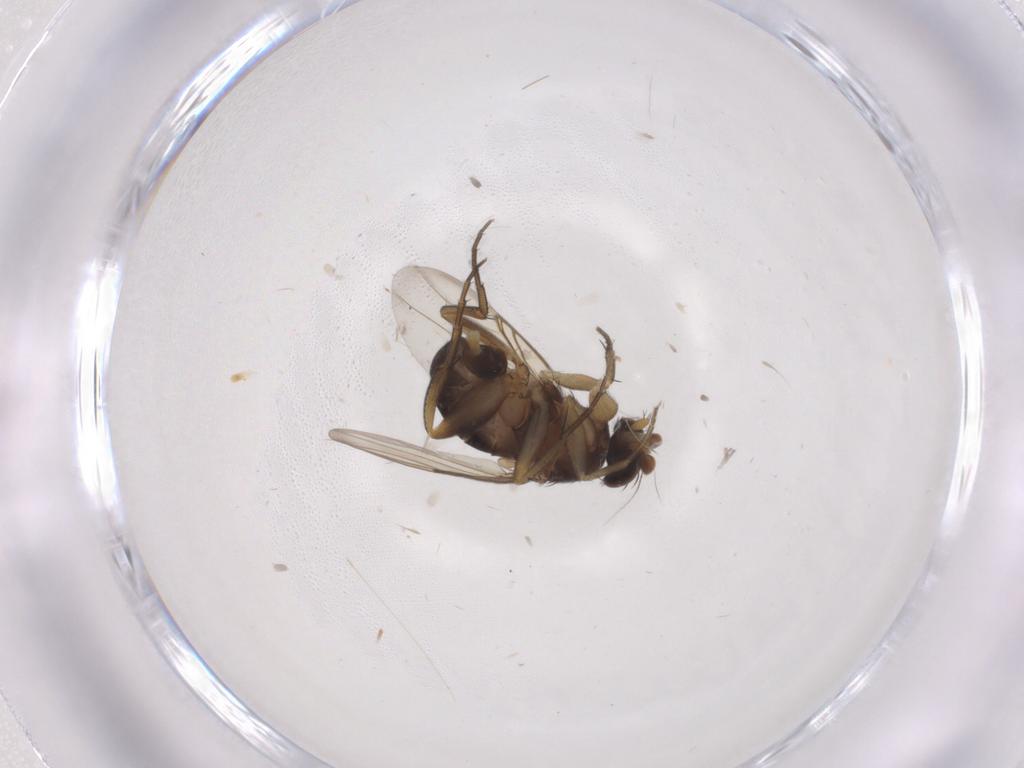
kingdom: Animalia
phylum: Arthropoda
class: Insecta
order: Diptera
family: Phoridae
